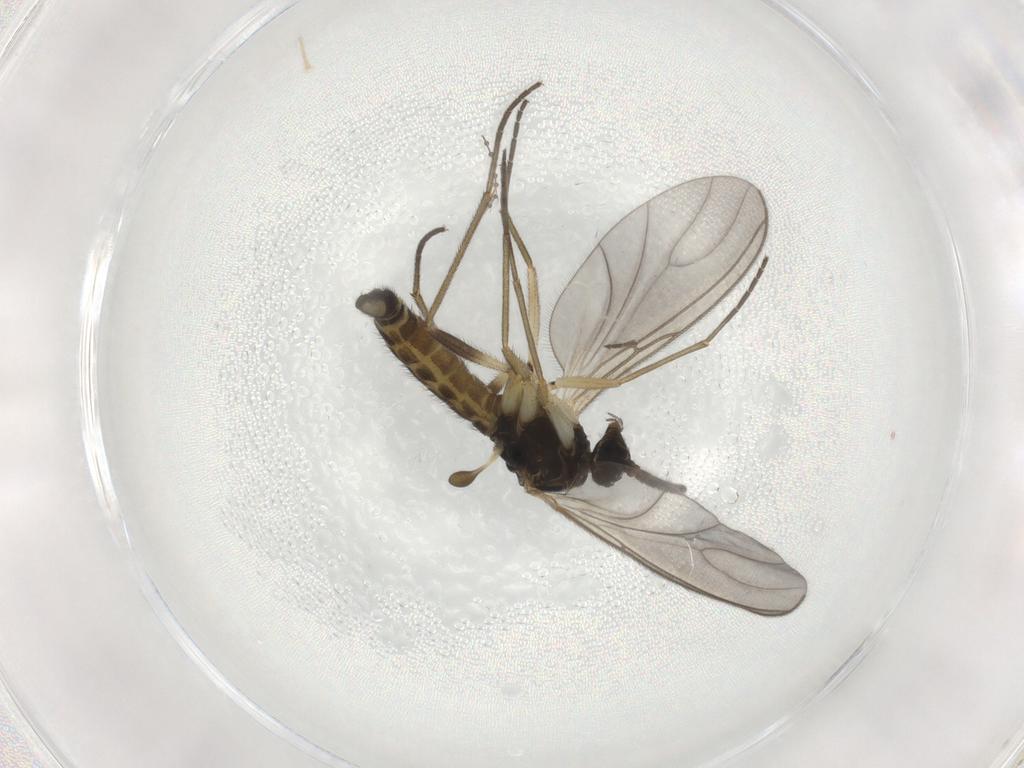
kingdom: Animalia
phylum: Arthropoda
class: Insecta
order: Diptera
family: Sciaridae
